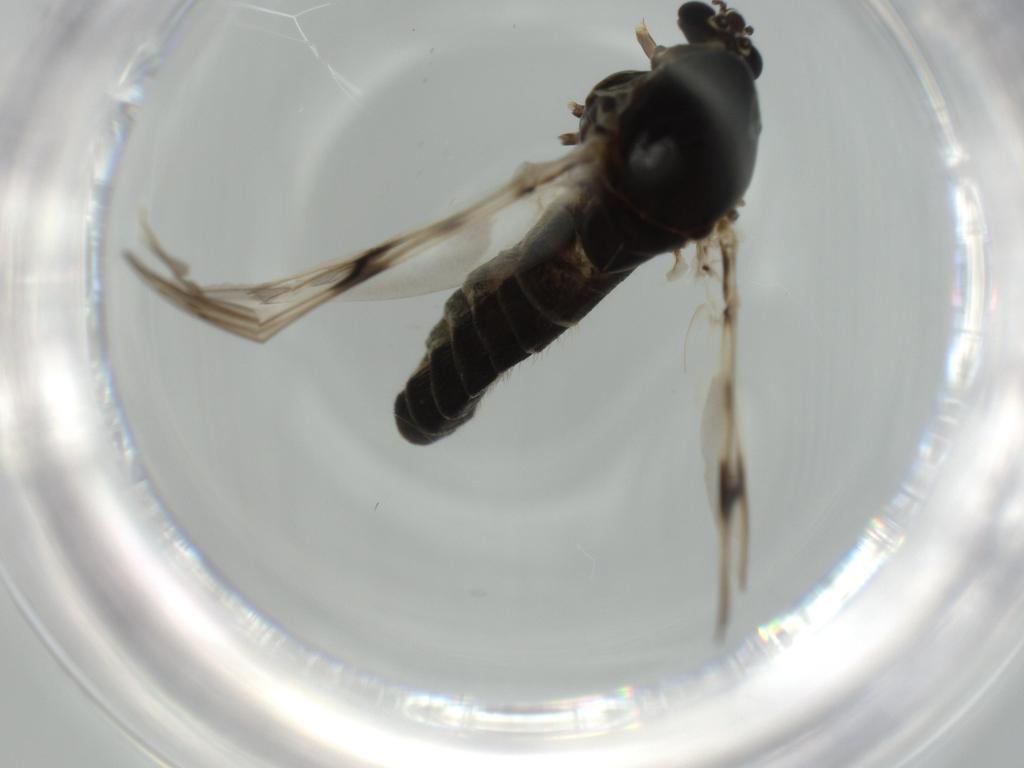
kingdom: Animalia
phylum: Arthropoda
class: Insecta
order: Diptera
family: Chloropidae
